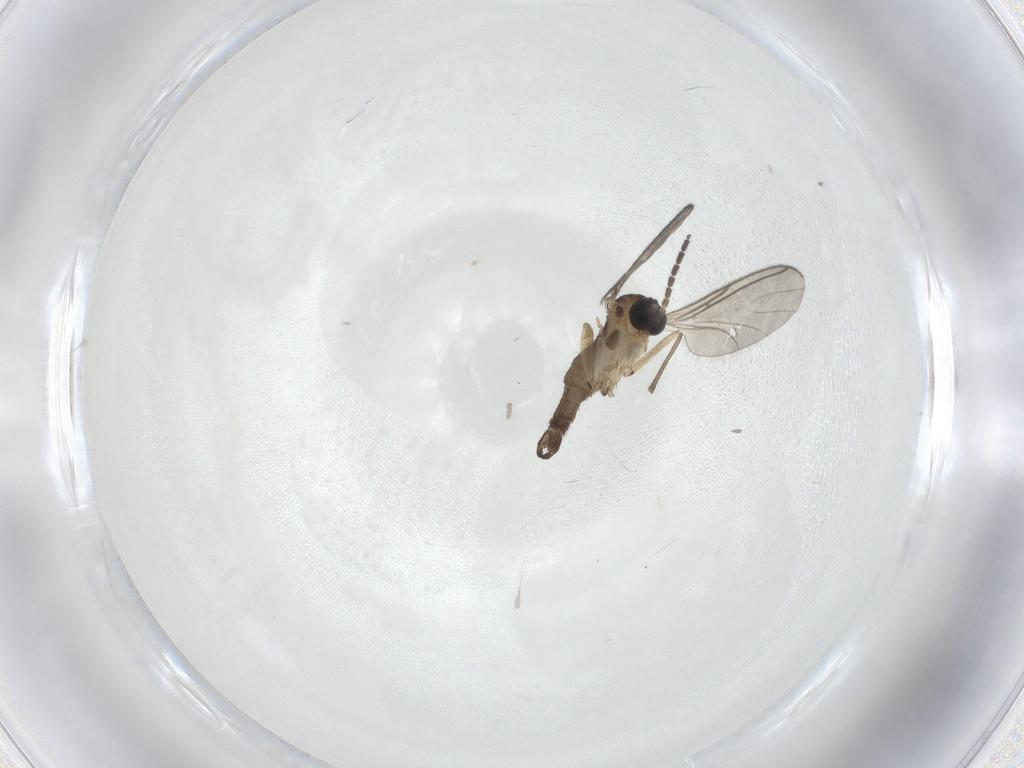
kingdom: Animalia
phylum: Arthropoda
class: Insecta
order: Diptera
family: Sciaridae
